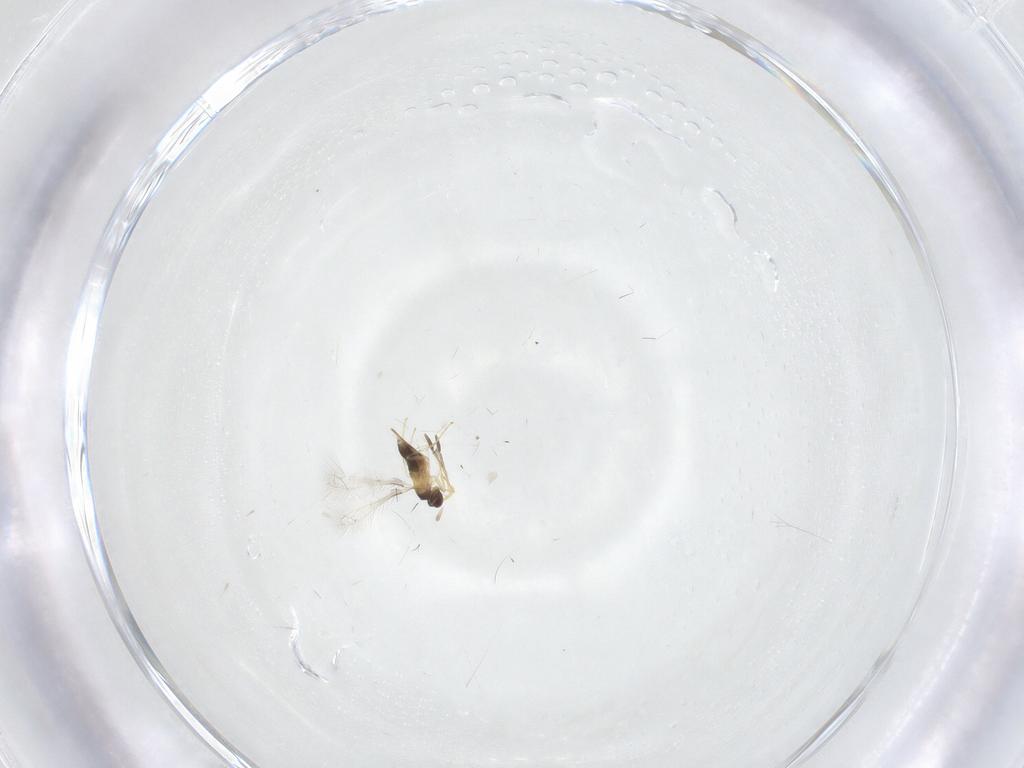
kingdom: Animalia
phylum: Arthropoda
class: Insecta
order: Hymenoptera
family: Mymaridae
